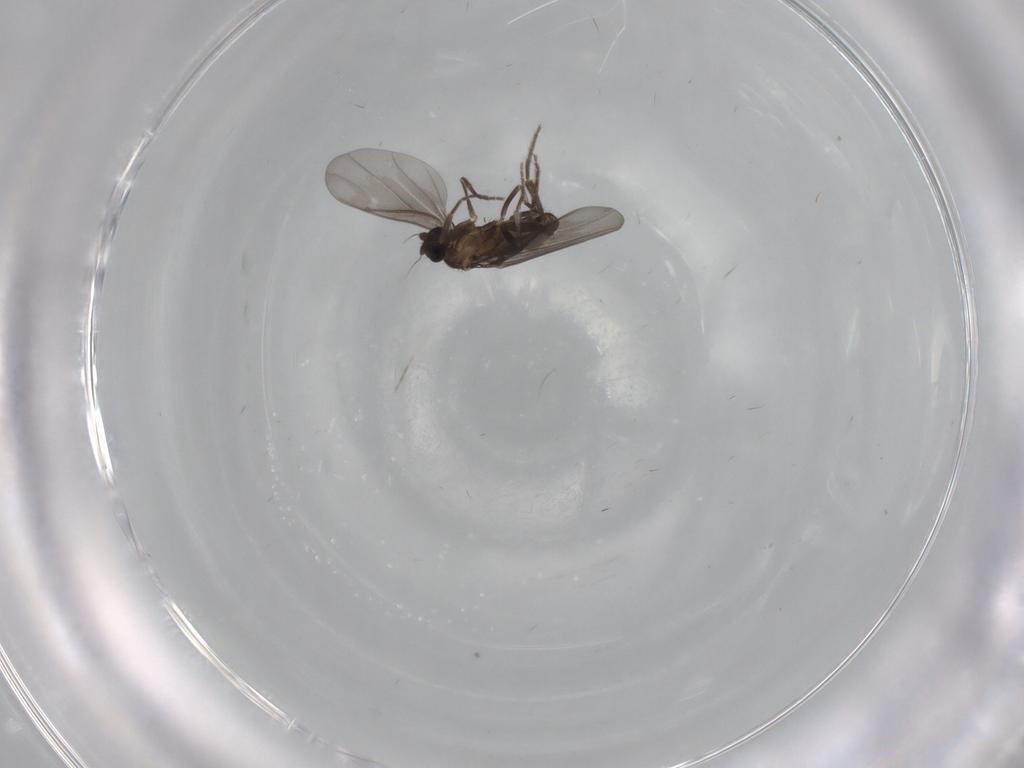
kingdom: Animalia
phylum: Arthropoda
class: Insecta
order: Diptera
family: Phoridae
